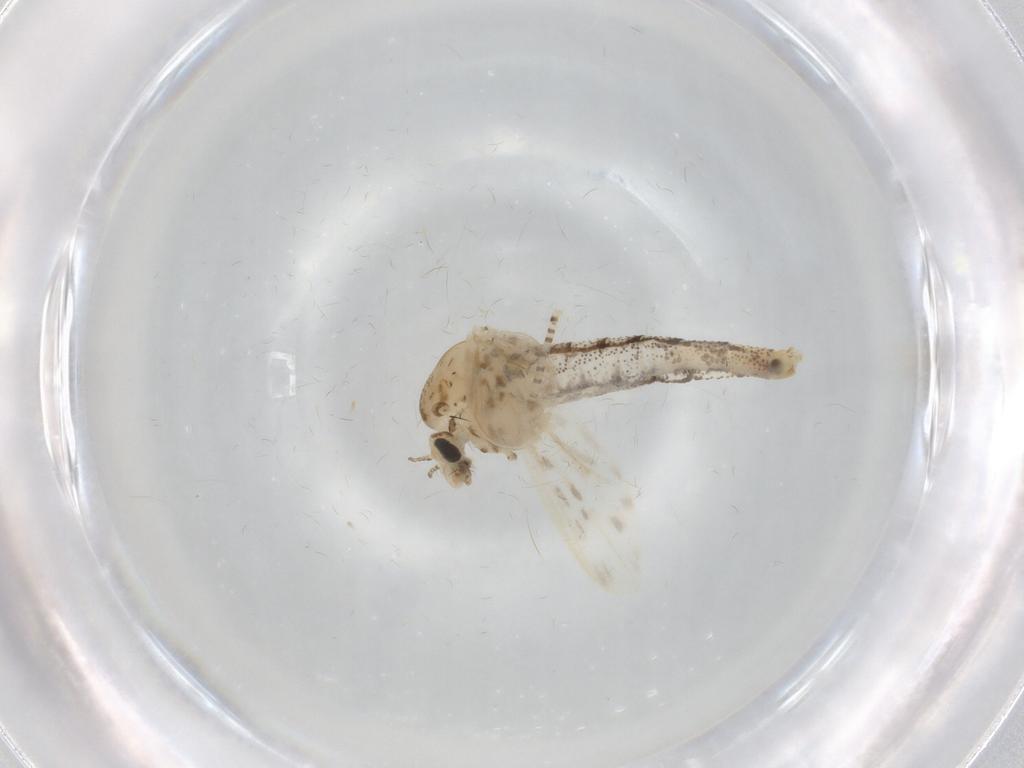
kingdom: Animalia
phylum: Arthropoda
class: Insecta
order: Diptera
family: Chaoboridae
